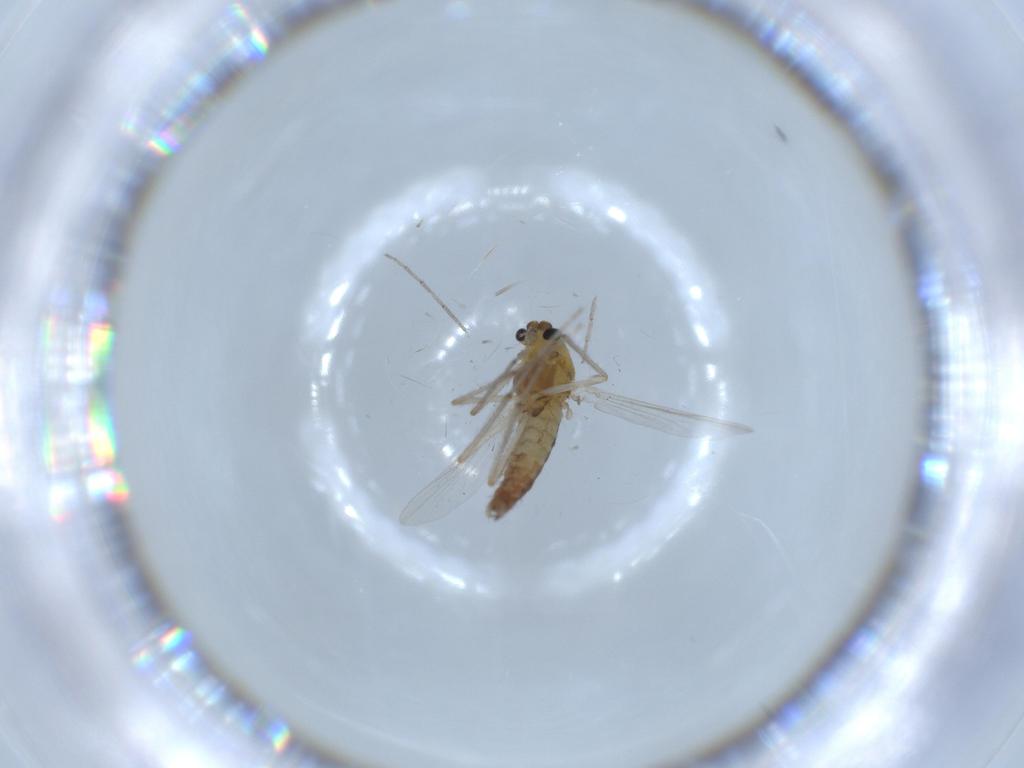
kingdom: Animalia
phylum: Arthropoda
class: Insecta
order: Diptera
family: Chironomidae
